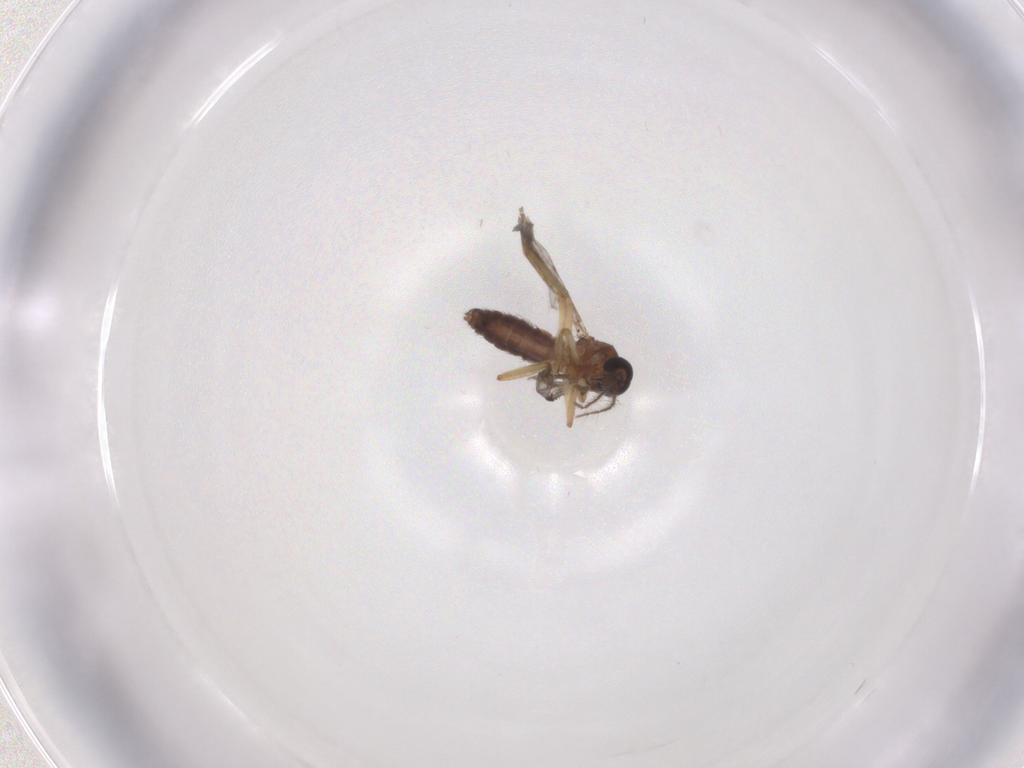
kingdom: Animalia
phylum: Arthropoda
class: Insecta
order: Diptera
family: Ceratopogonidae
